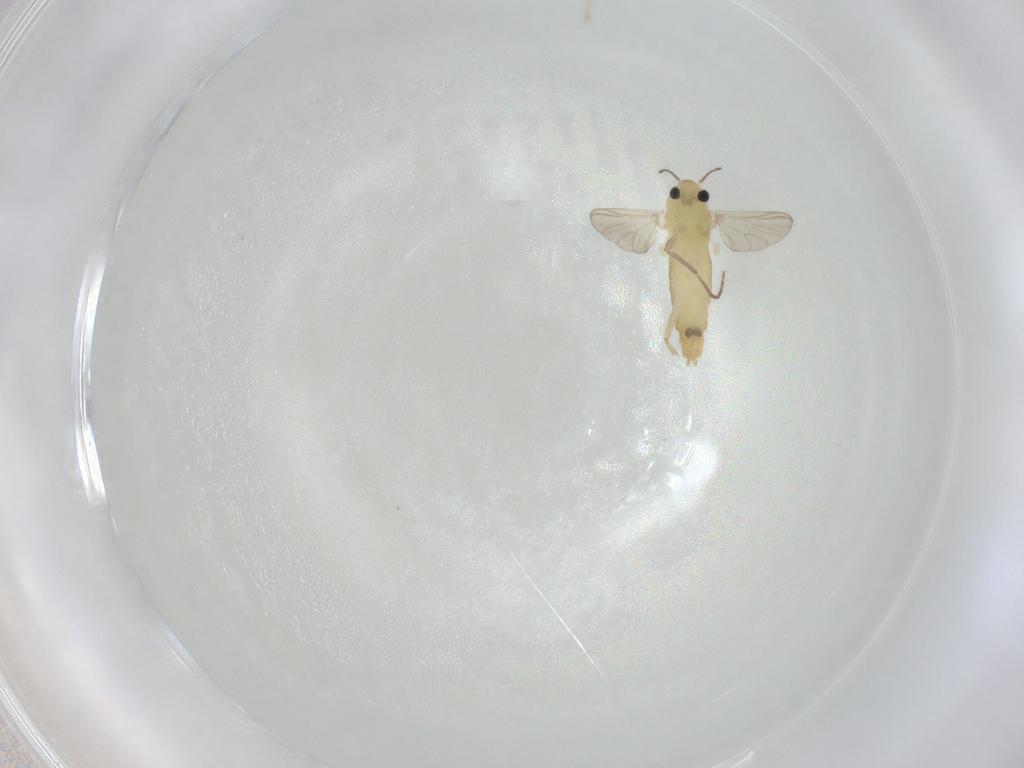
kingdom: Animalia
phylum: Arthropoda
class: Insecta
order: Diptera
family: Chironomidae
